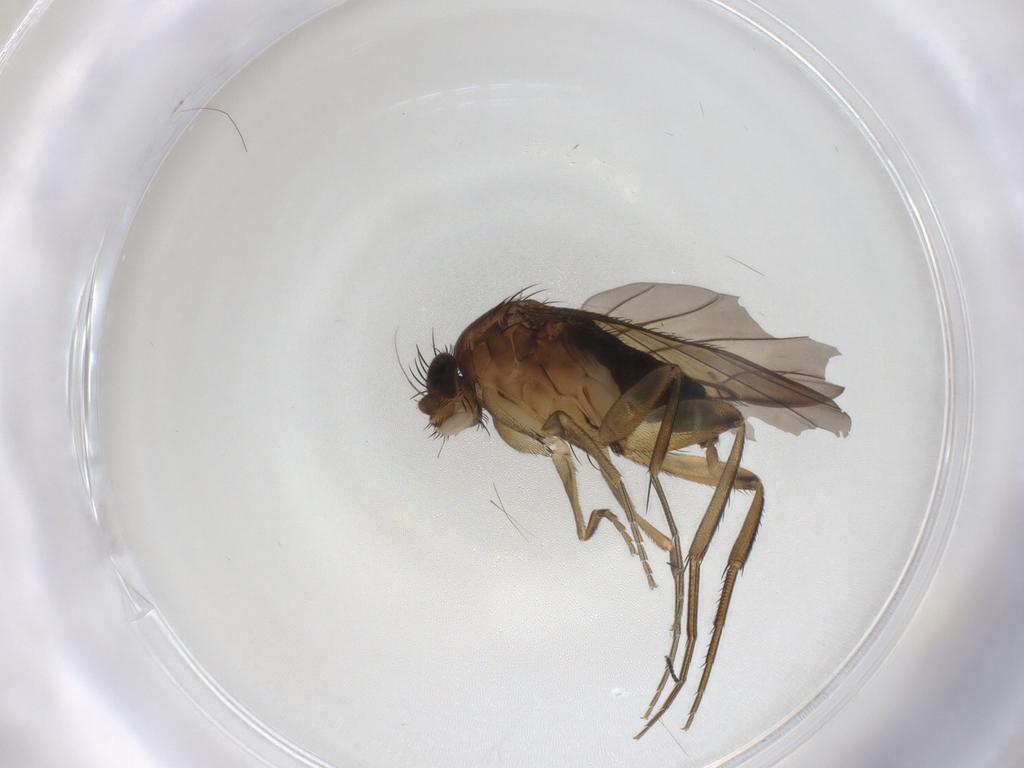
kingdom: Animalia
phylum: Arthropoda
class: Insecta
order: Diptera
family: Phoridae
